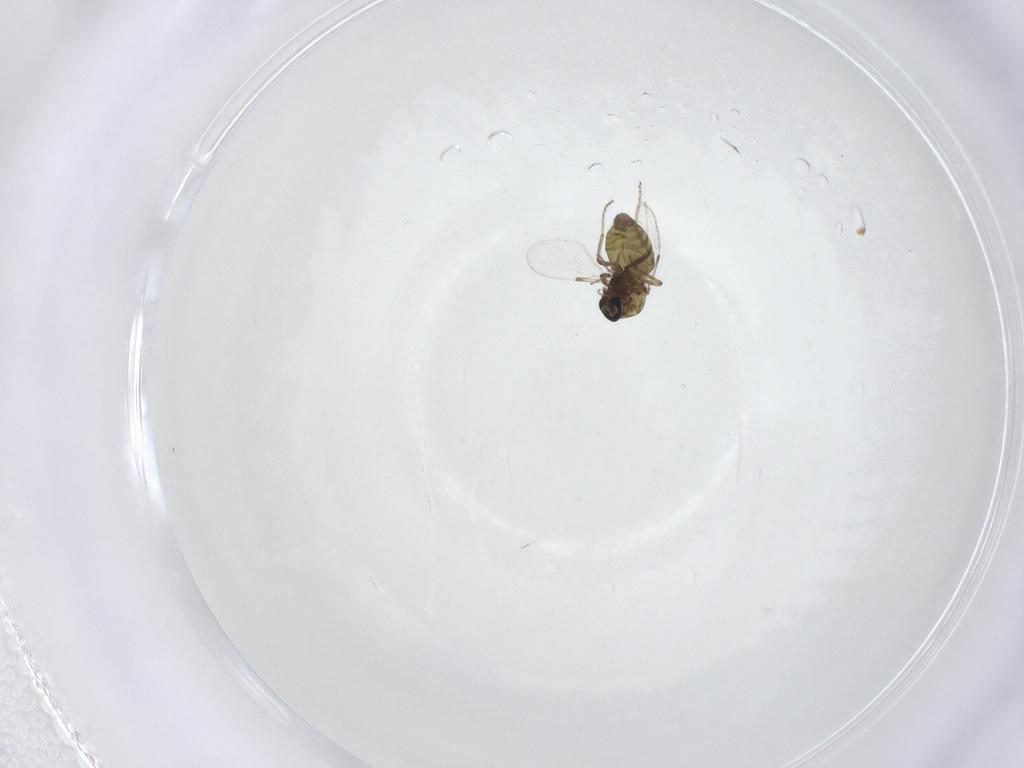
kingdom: Animalia
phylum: Arthropoda
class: Insecta
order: Diptera
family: Ceratopogonidae
